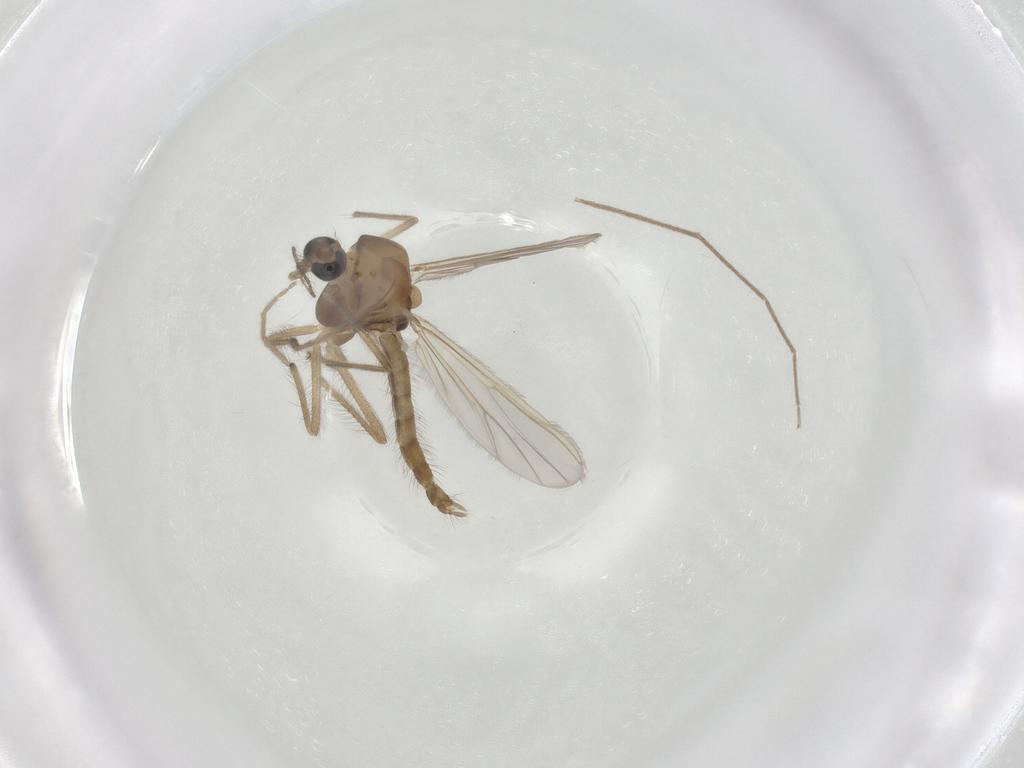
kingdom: Animalia
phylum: Arthropoda
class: Insecta
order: Diptera
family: Chironomidae
